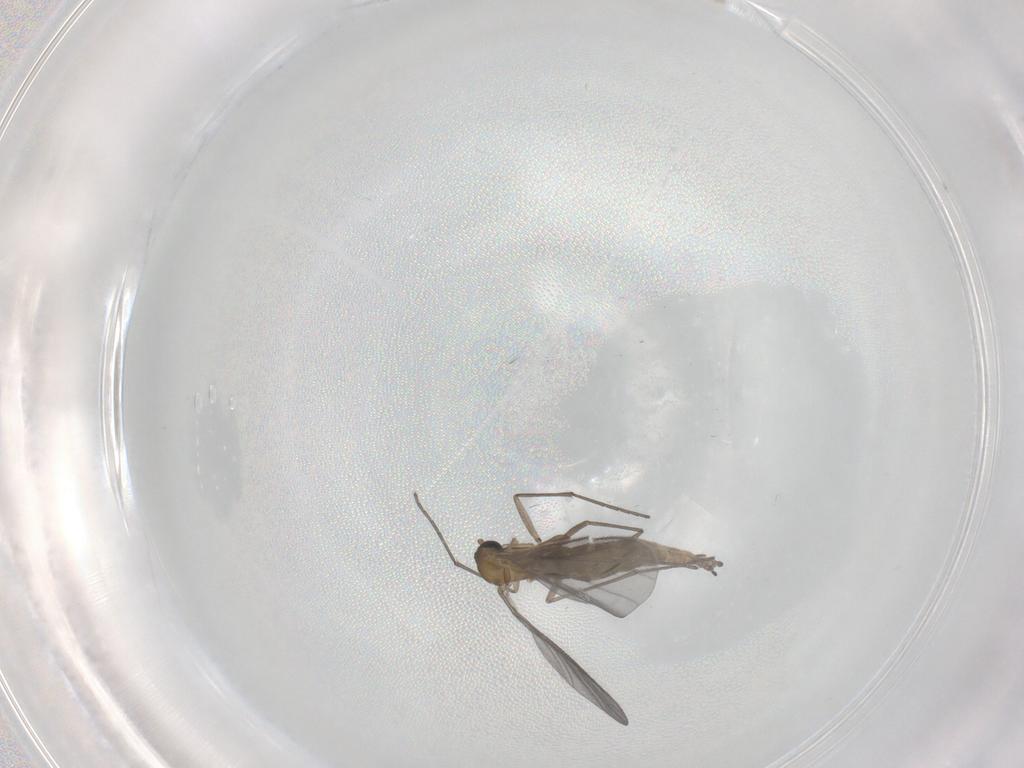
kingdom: Animalia
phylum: Arthropoda
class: Insecta
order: Diptera
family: Sciaridae
